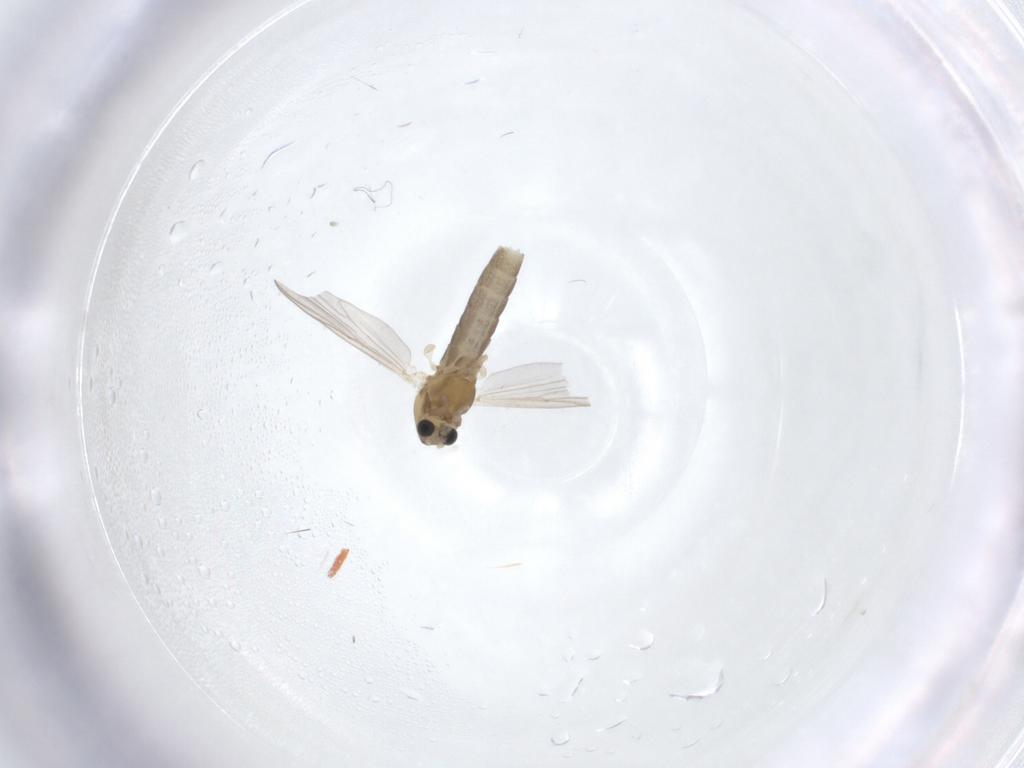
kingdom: Animalia
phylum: Arthropoda
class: Insecta
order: Diptera
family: Chironomidae
